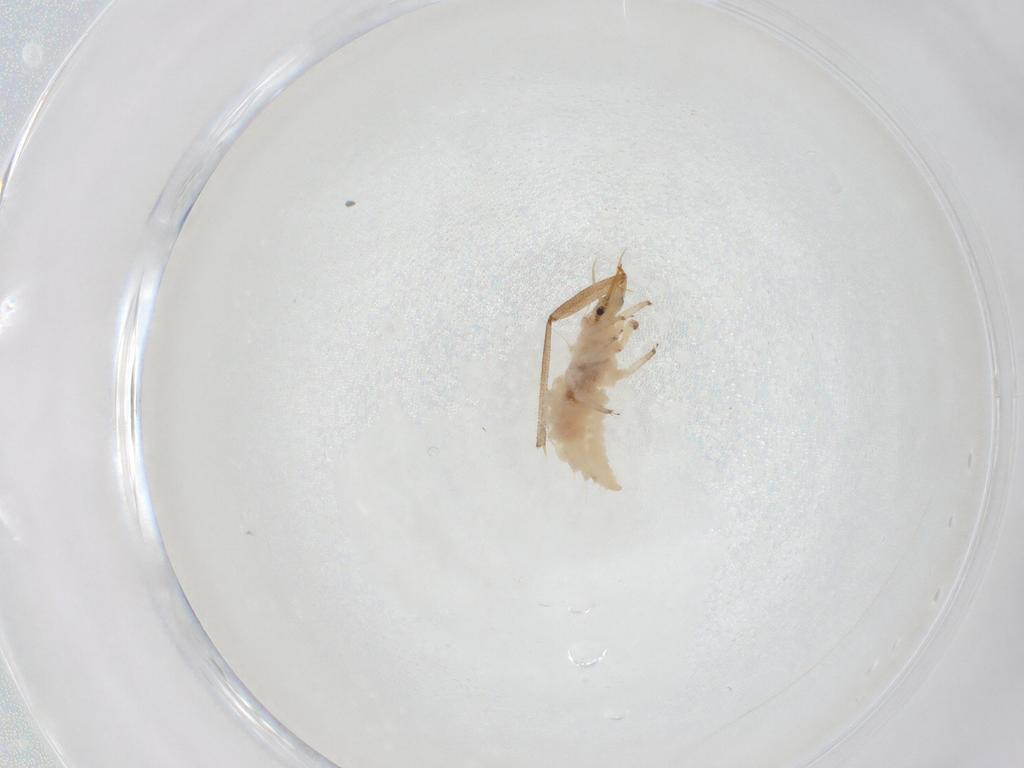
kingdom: Animalia
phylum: Arthropoda
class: Insecta
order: Neuroptera
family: Chrysopidae
